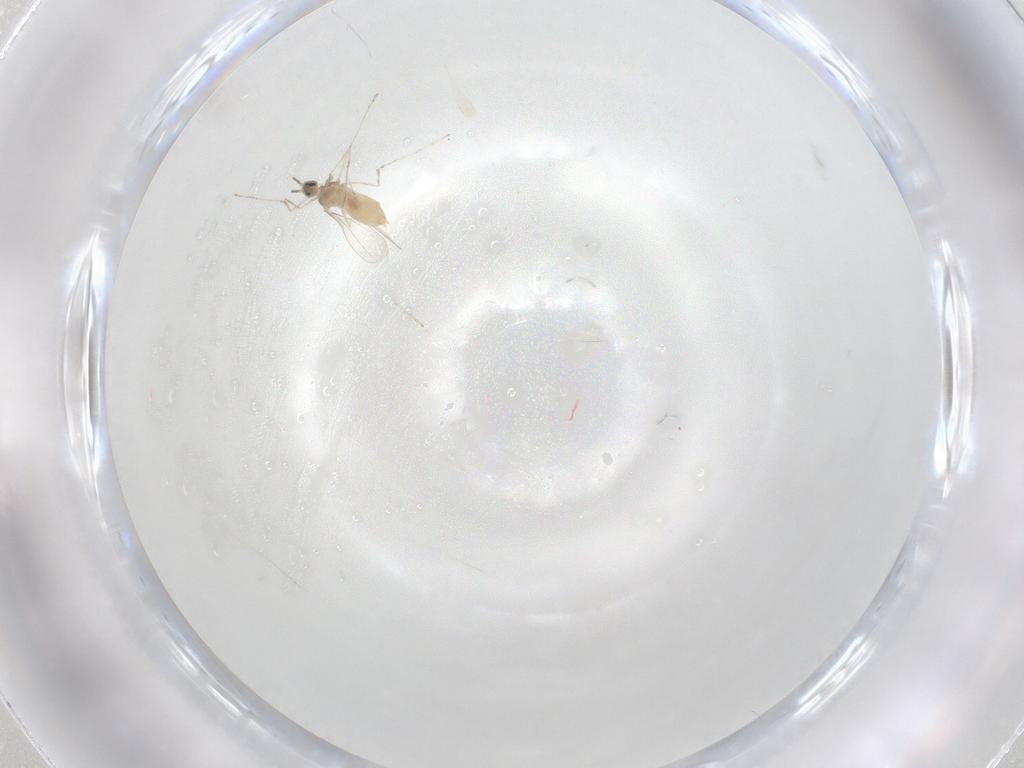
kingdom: Animalia
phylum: Arthropoda
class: Insecta
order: Diptera
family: Cecidomyiidae
